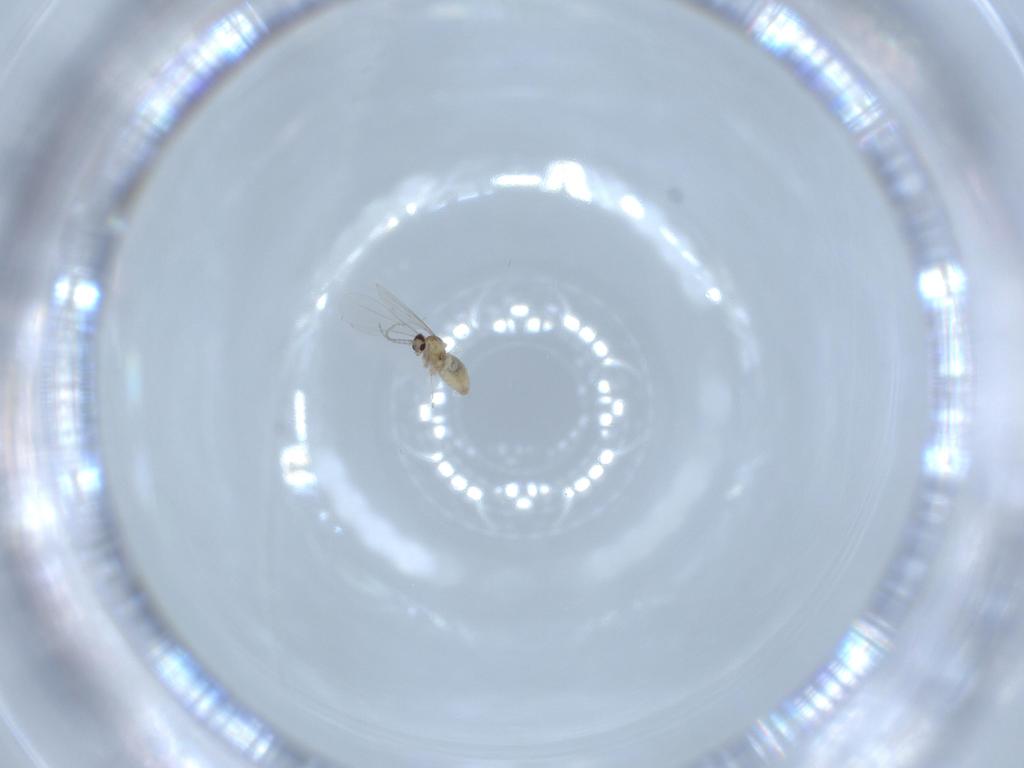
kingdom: Animalia
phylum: Arthropoda
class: Insecta
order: Diptera
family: Cecidomyiidae
